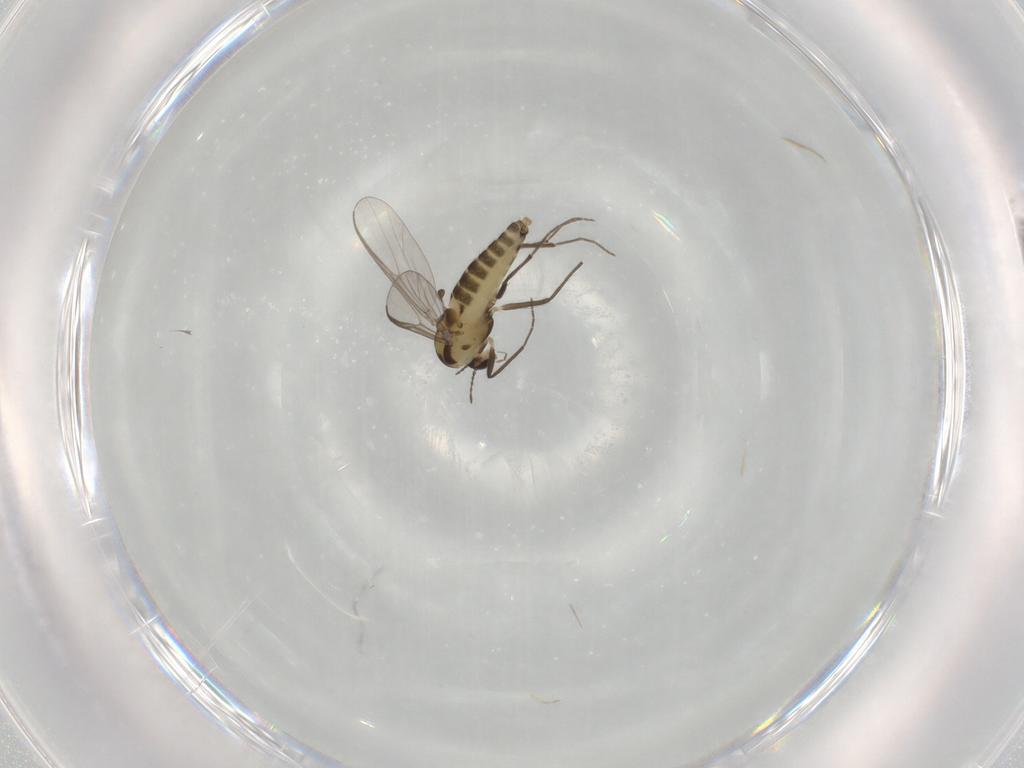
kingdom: Animalia
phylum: Arthropoda
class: Insecta
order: Diptera
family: Chironomidae
